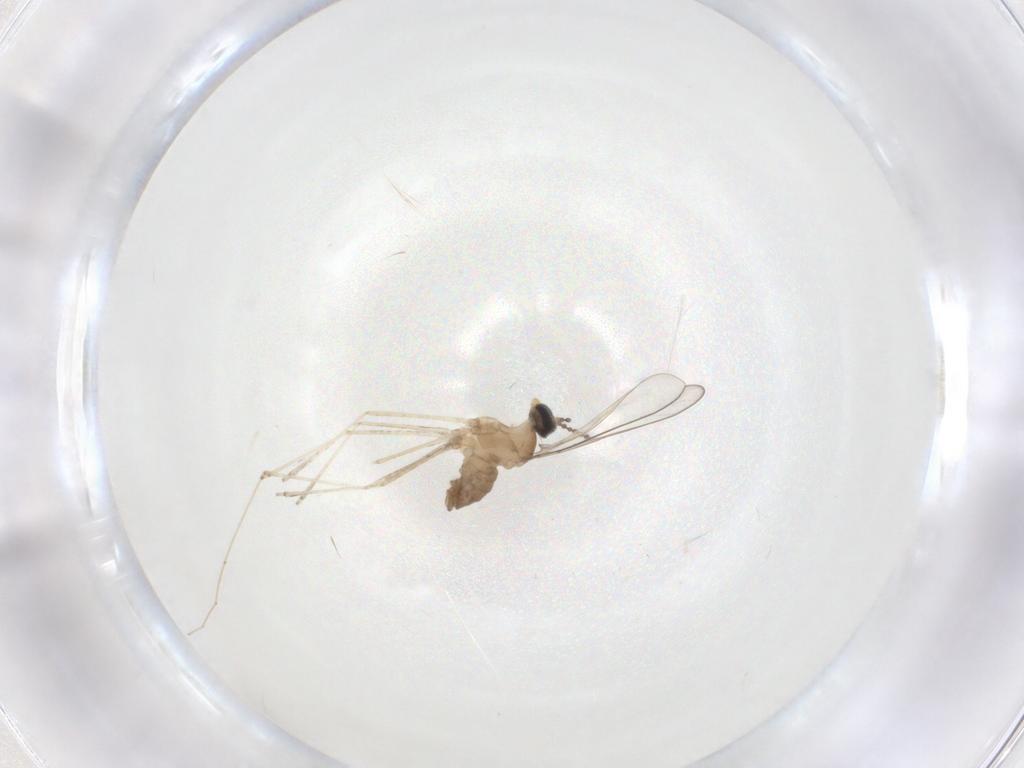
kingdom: Animalia
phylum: Arthropoda
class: Insecta
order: Diptera
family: Cecidomyiidae
